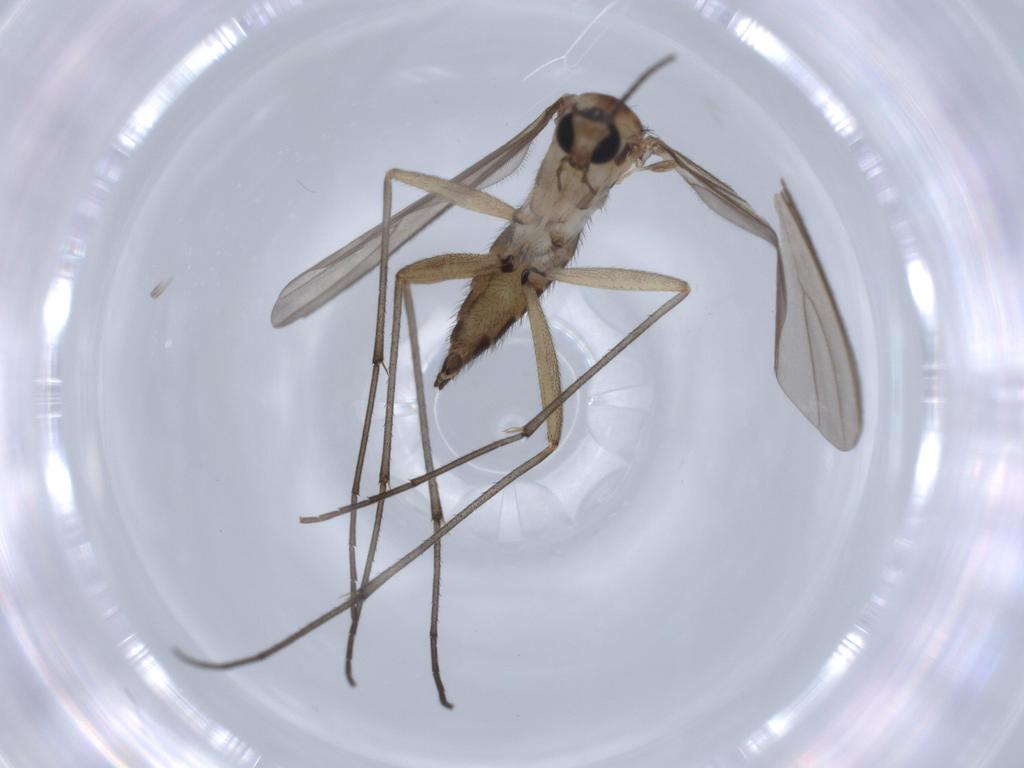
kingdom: Animalia
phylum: Arthropoda
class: Insecta
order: Diptera
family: Sciaridae
